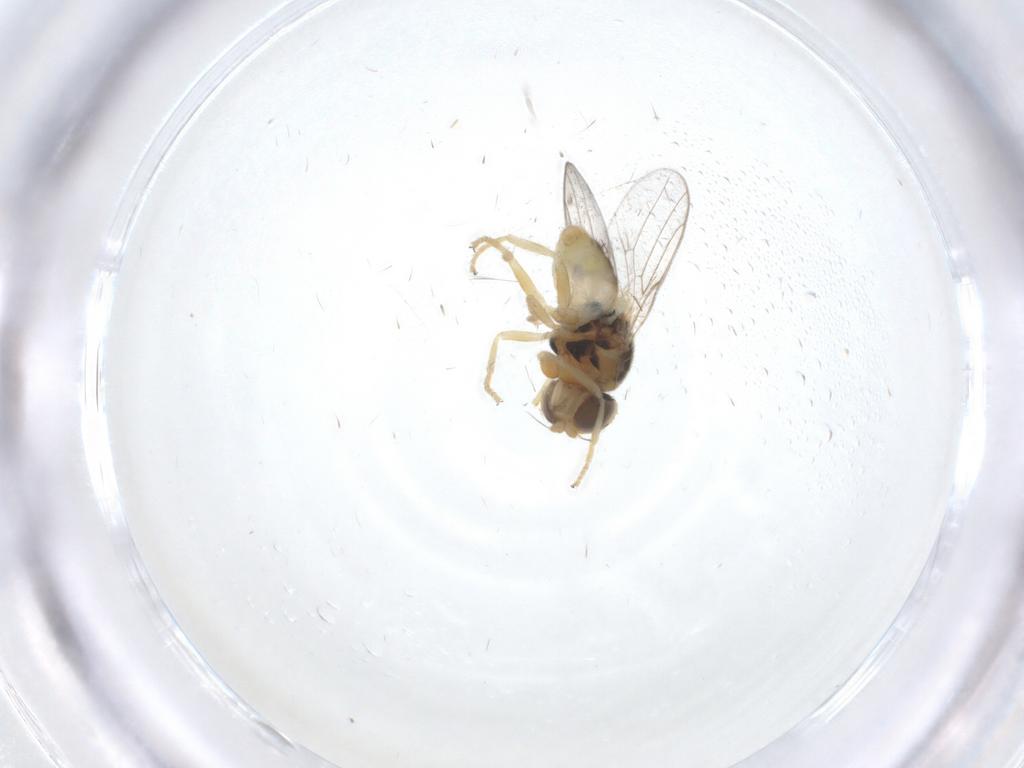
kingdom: Animalia
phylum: Arthropoda
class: Insecta
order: Diptera
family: Chloropidae
